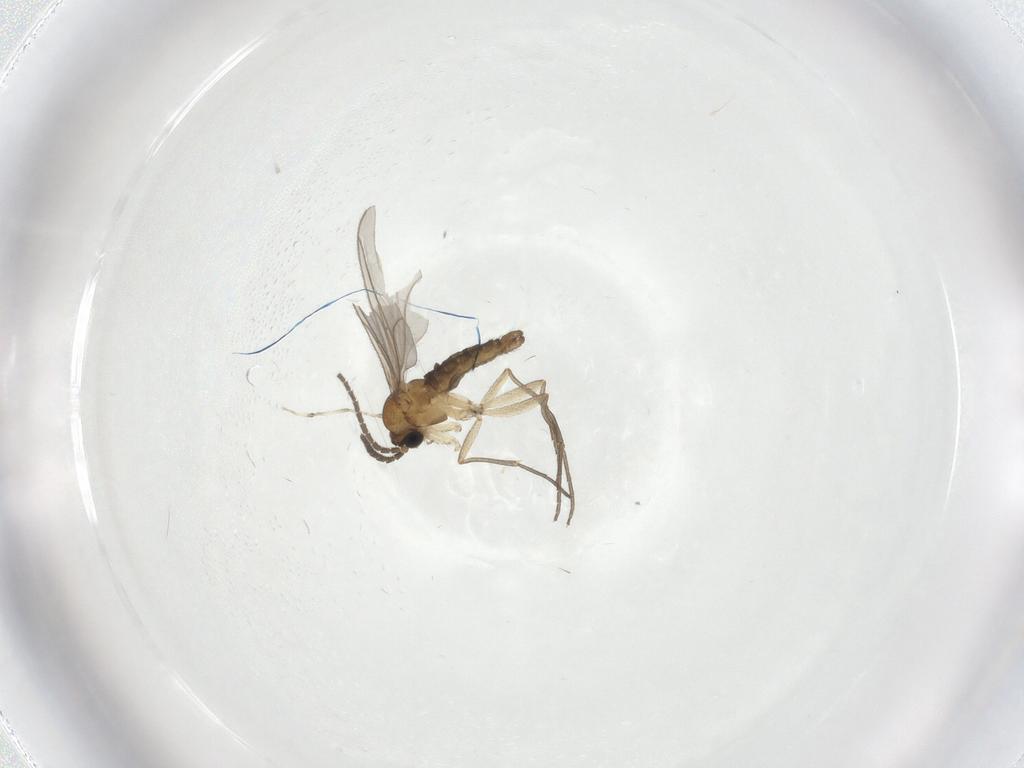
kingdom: Animalia
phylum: Arthropoda
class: Insecta
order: Diptera
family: Sciaridae
